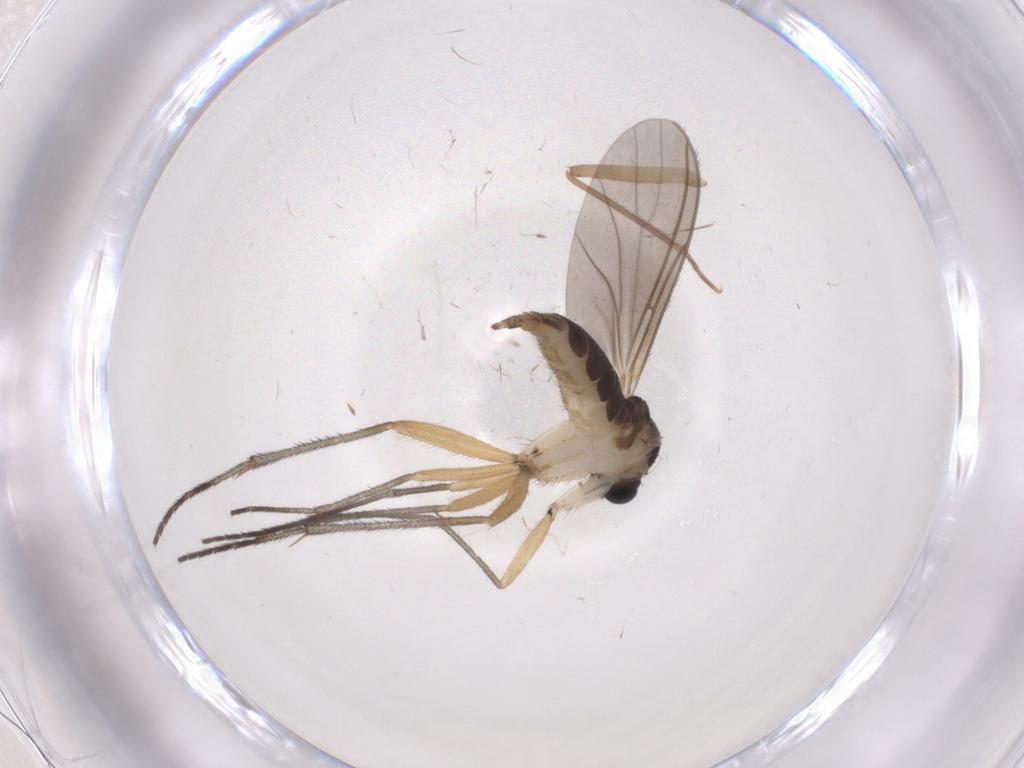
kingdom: Animalia
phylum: Arthropoda
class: Insecta
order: Diptera
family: Sciaridae
